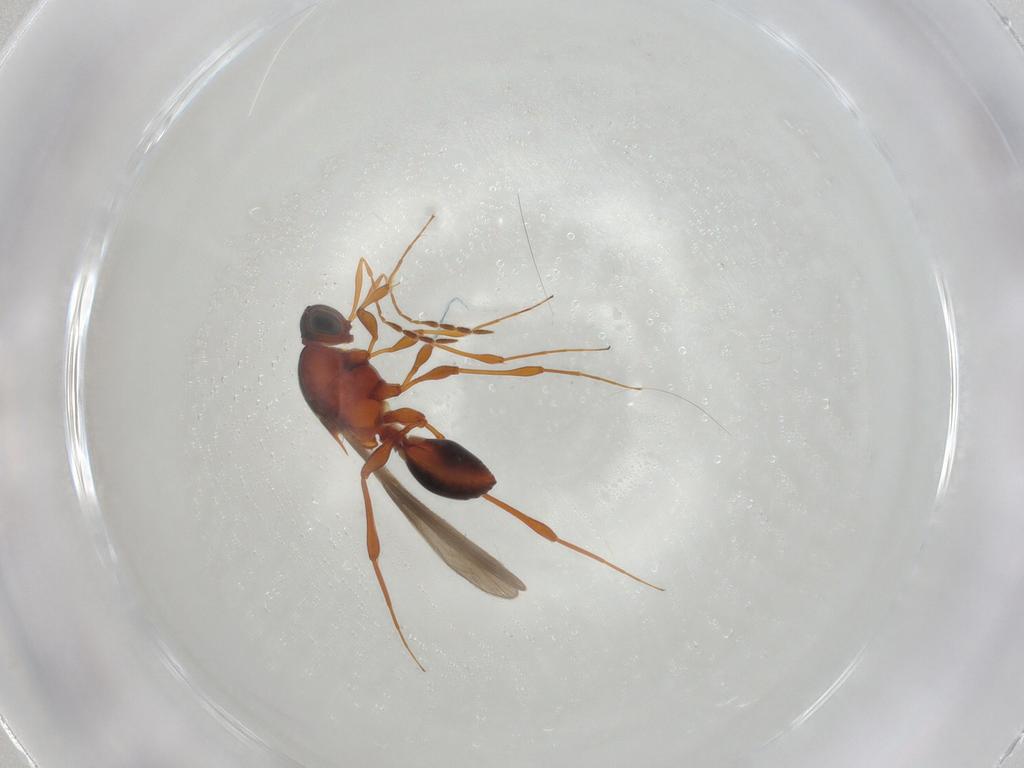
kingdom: Animalia
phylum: Arthropoda
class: Insecta
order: Hymenoptera
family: Platygastridae
